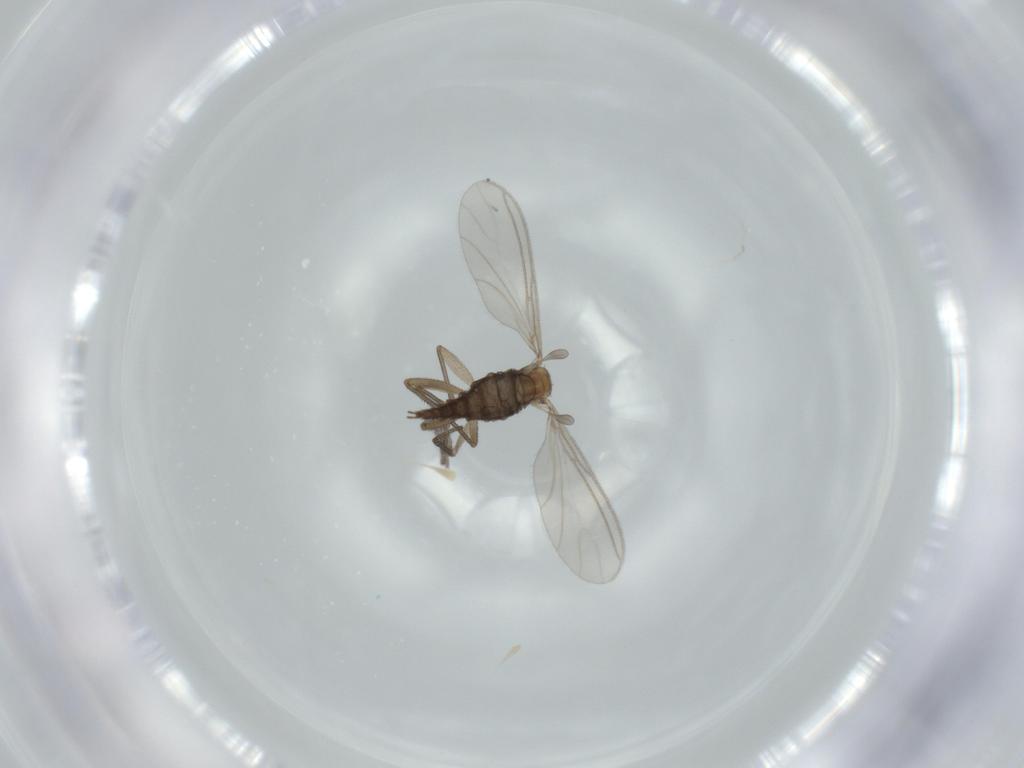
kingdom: Animalia
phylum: Arthropoda
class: Insecta
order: Diptera
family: Sciaridae
